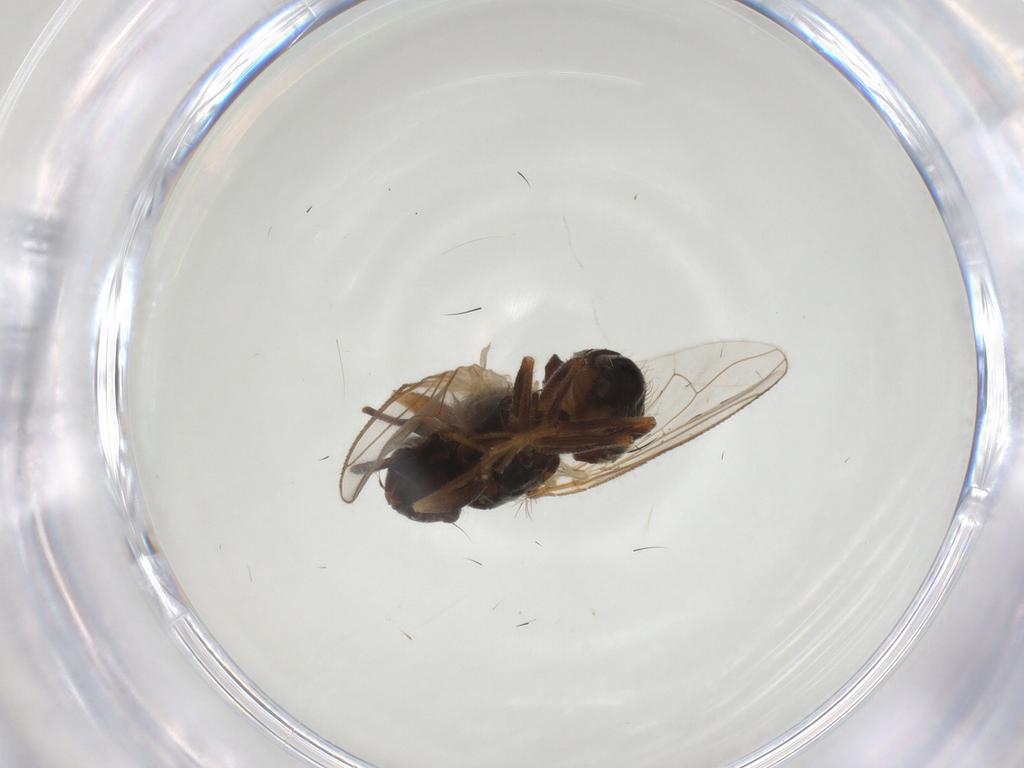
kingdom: Animalia
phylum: Arthropoda
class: Insecta
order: Diptera
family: Muscidae
